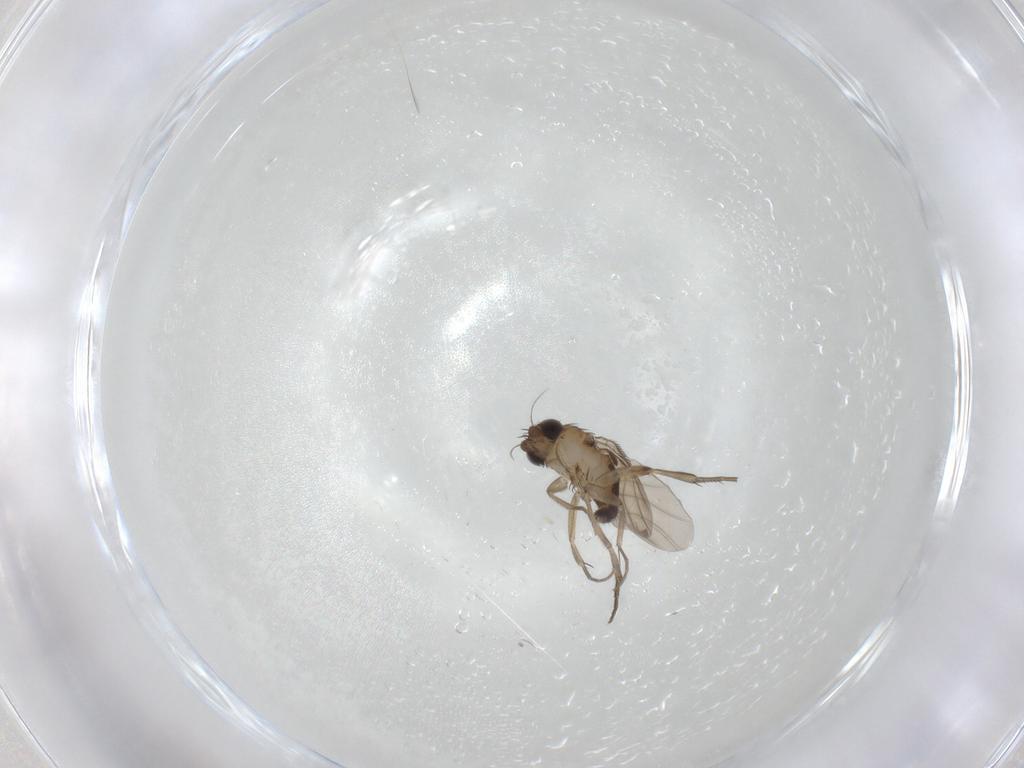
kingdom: Animalia
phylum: Arthropoda
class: Insecta
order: Diptera
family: Phoridae
